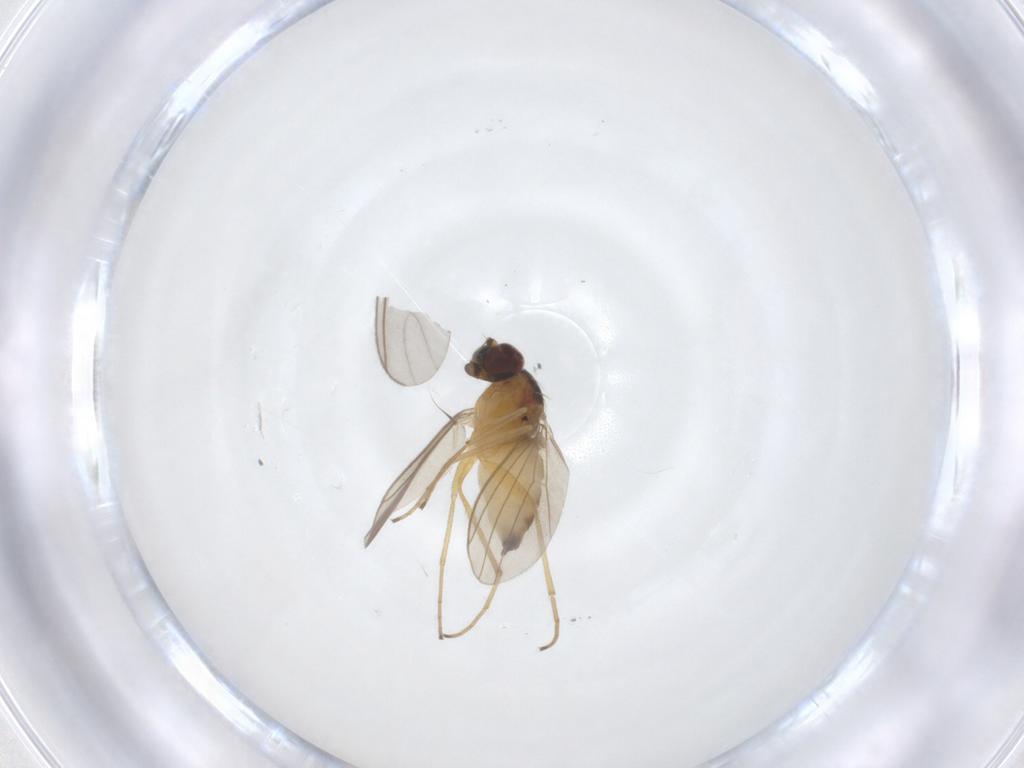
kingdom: Animalia
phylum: Arthropoda
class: Insecta
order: Diptera
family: Dolichopodidae
